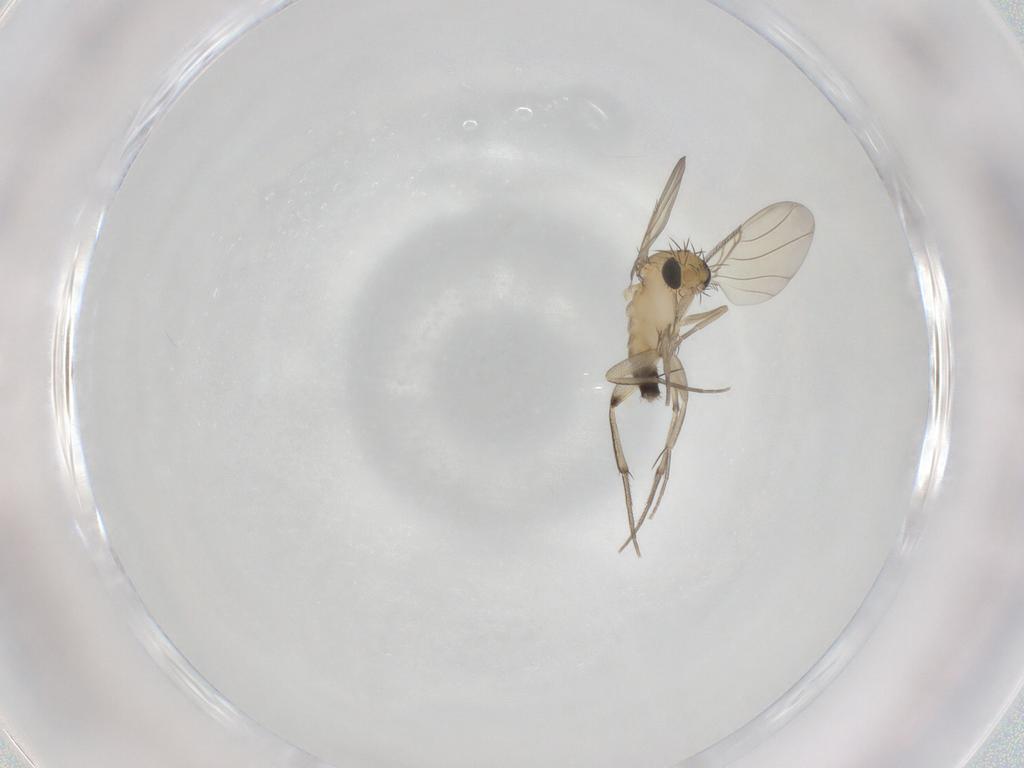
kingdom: Animalia
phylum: Arthropoda
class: Insecta
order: Diptera
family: Phoridae
